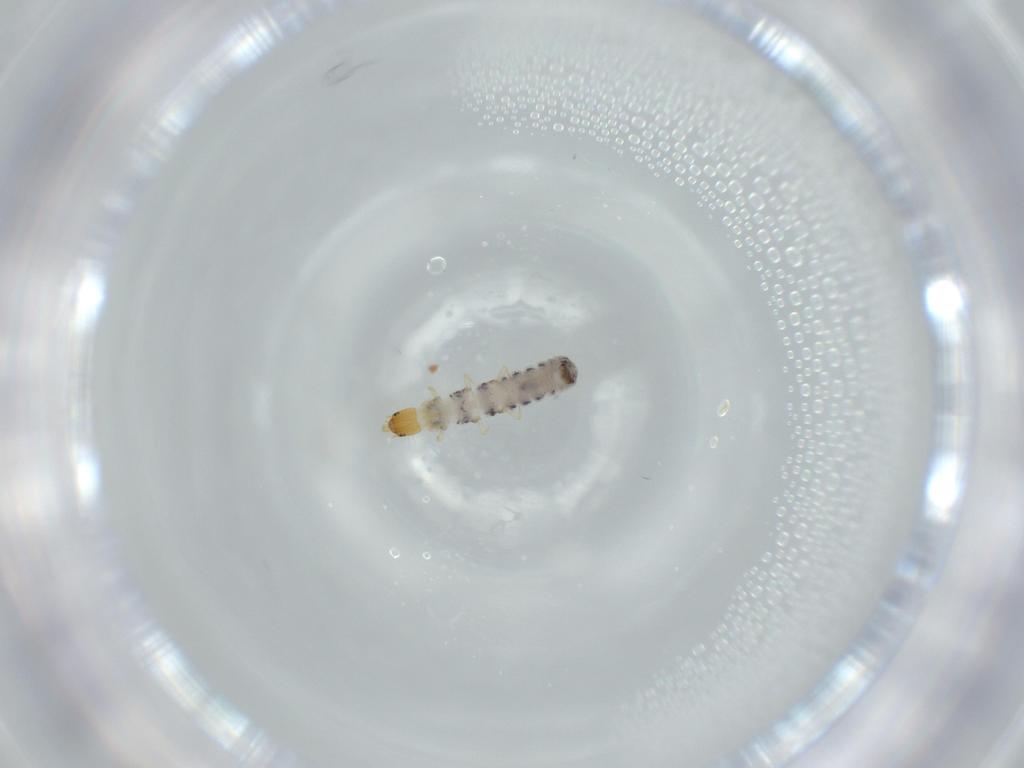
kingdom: Animalia
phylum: Arthropoda
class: Insecta
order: Coleoptera
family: Cleridae
